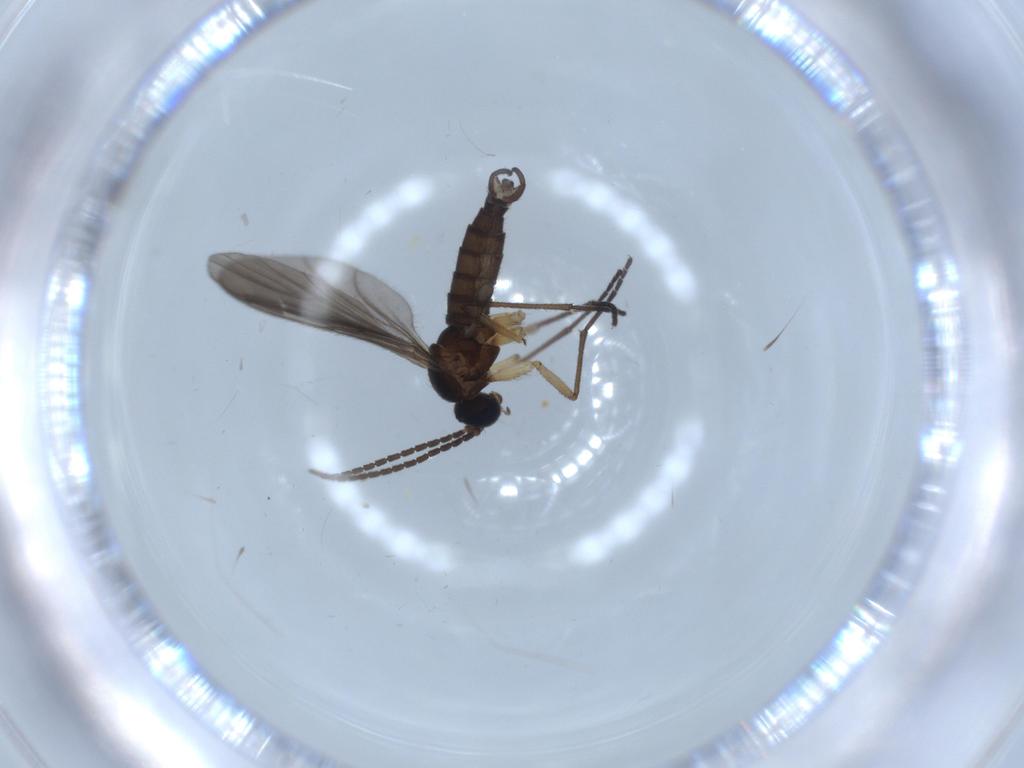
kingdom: Animalia
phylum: Arthropoda
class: Insecta
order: Diptera
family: Sciaridae
